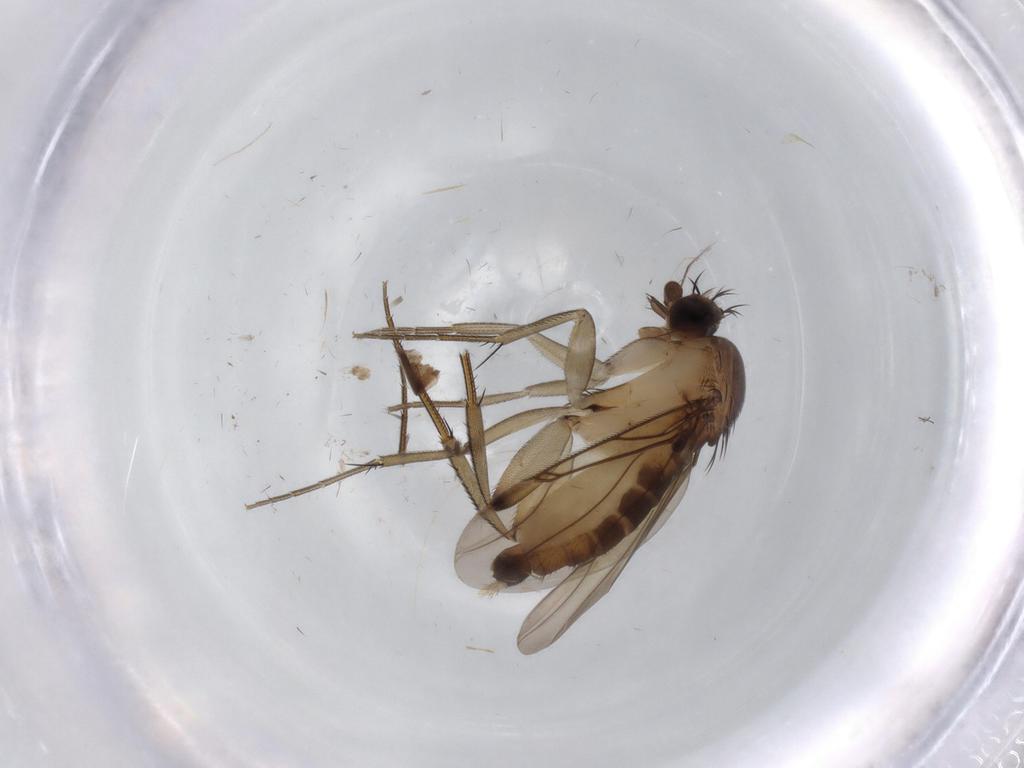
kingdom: Animalia
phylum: Arthropoda
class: Insecta
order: Diptera
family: Phoridae
